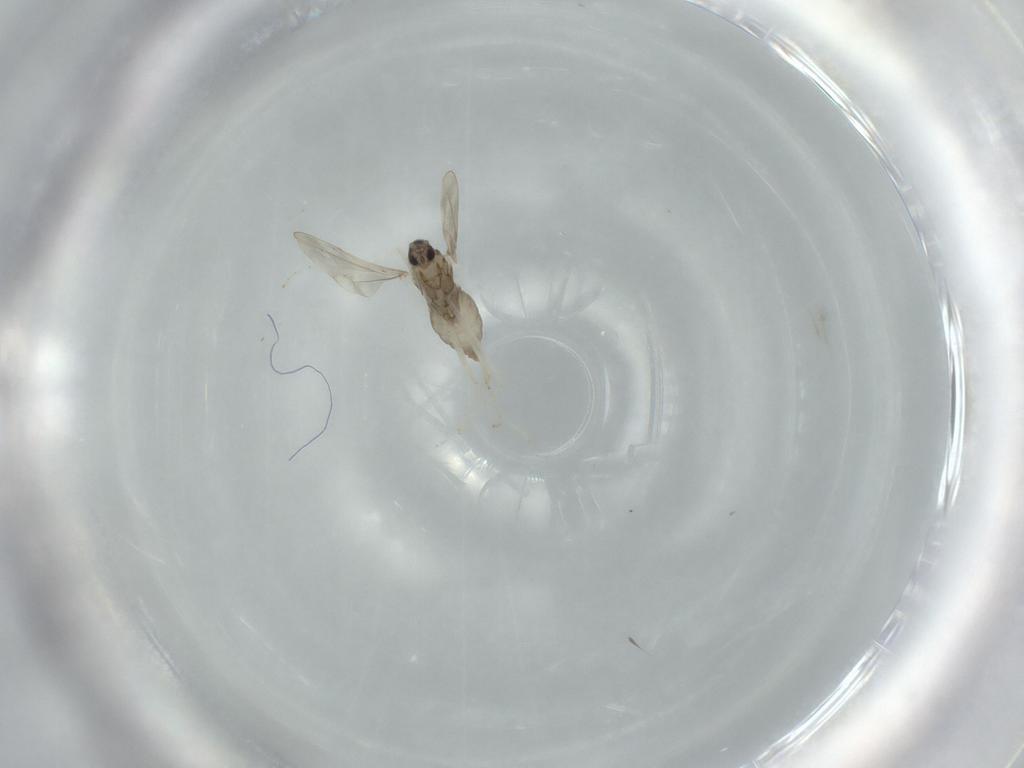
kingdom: Animalia
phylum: Arthropoda
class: Insecta
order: Diptera
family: Cecidomyiidae
